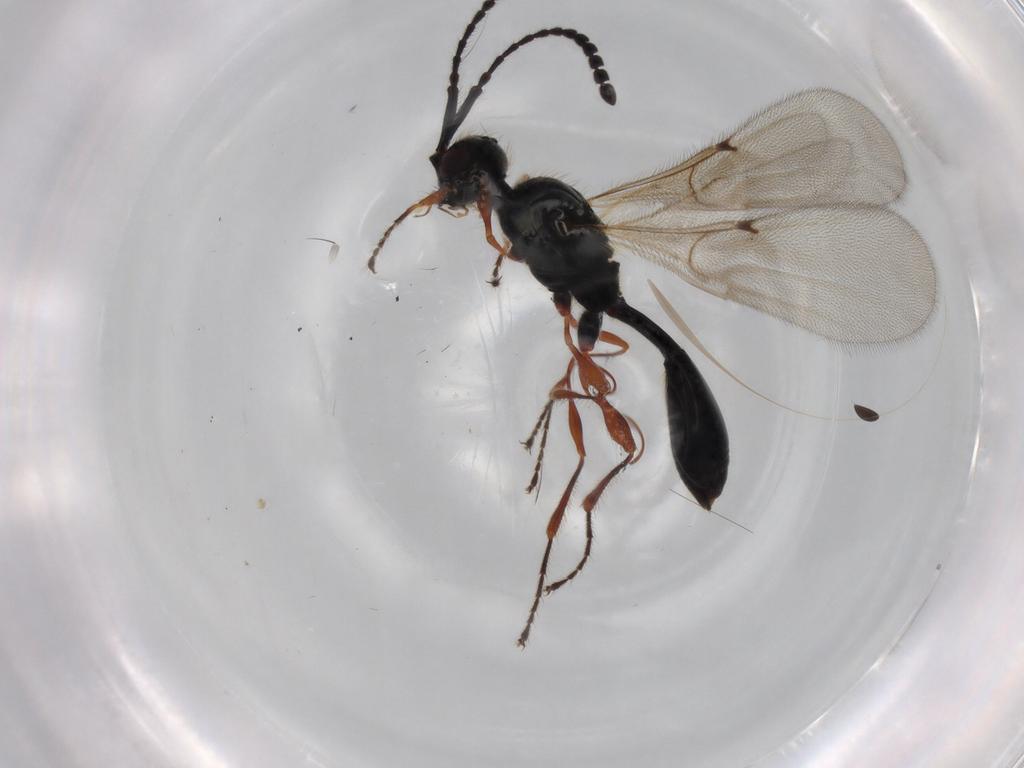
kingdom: Animalia
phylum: Arthropoda
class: Insecta
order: Hymenoptera
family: Diapriidae
